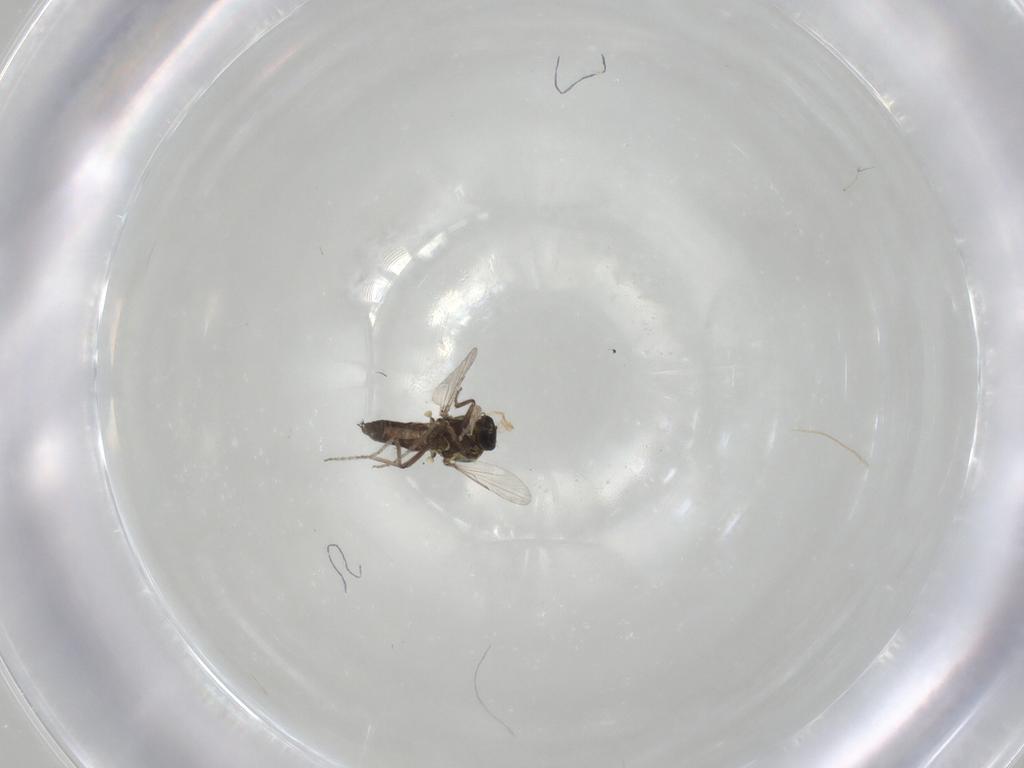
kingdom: Animalia
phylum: Arthropoda
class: Insecta
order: Diptera
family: Ceratopogonidae
